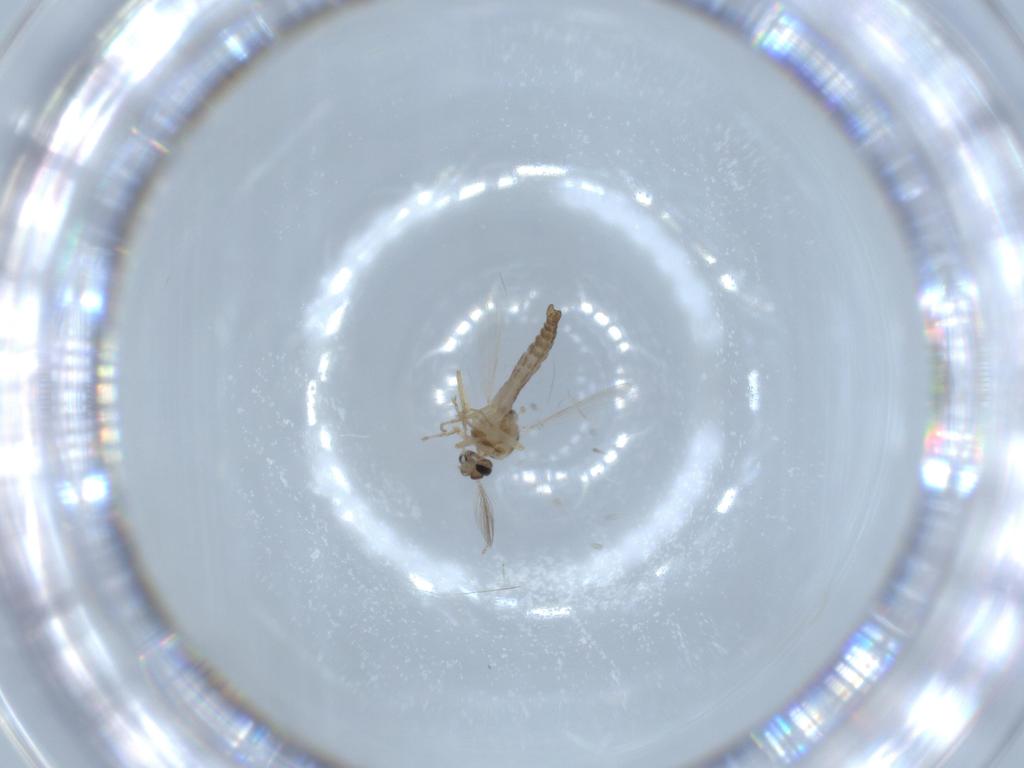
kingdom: Animalia
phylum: Arthropoda
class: Insecta
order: Diptera
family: Ceratopogonidae
